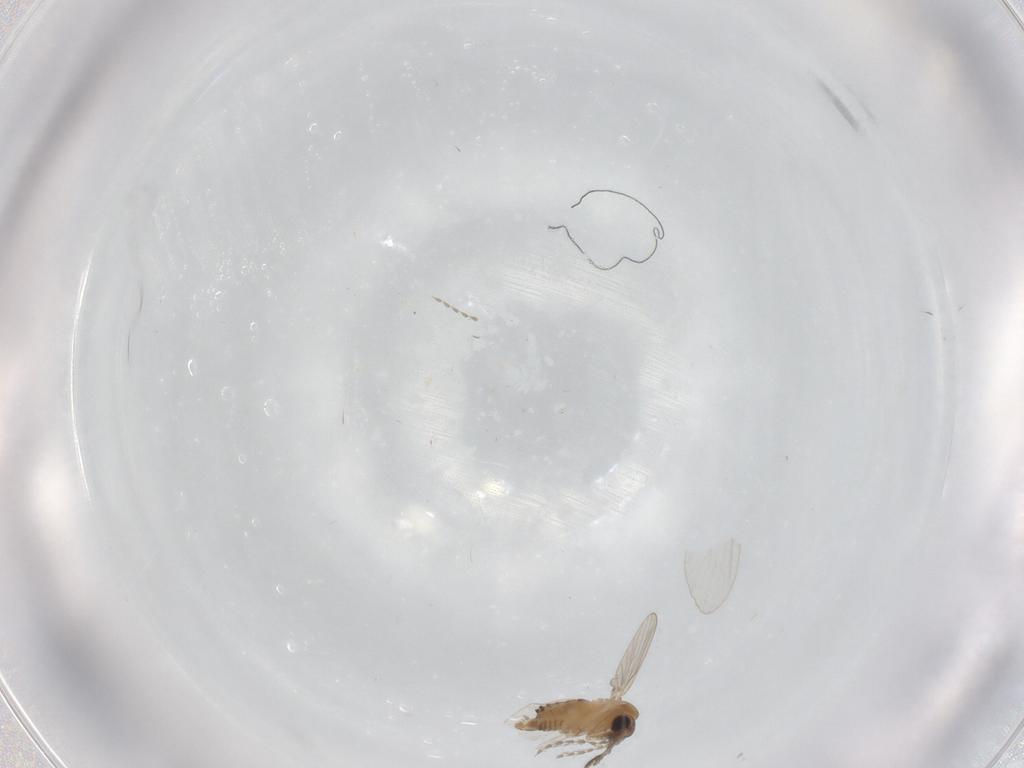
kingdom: Animalia
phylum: Arthropoda
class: Insecta
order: Diptera
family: Psychodidae
